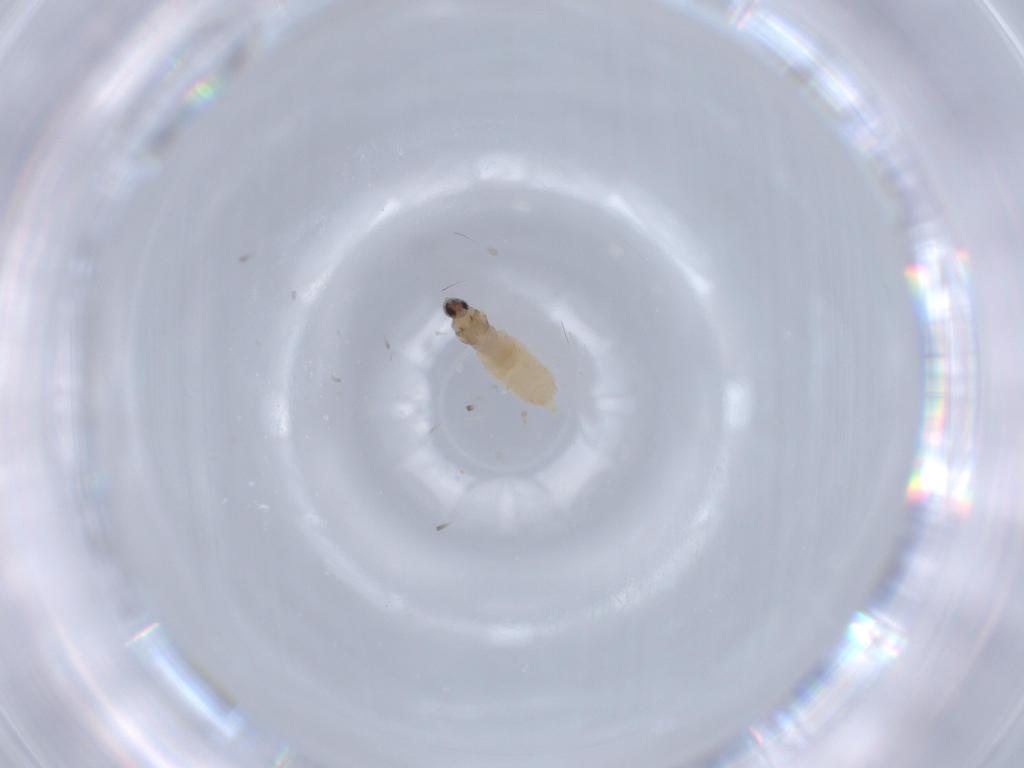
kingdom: Animalia
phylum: Arthropoda
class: Insecta
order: Diptera
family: Cecidomyiidae
